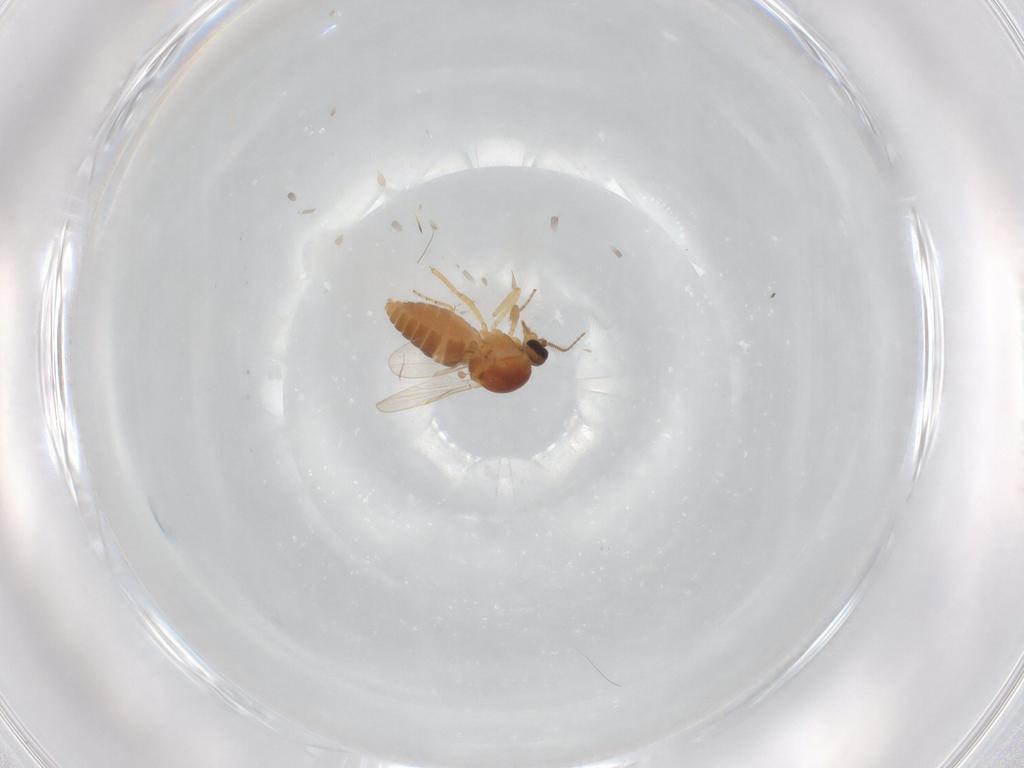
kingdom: Animalia
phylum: Arthropoda
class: Insecta
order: Diptera
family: Ceratopogonidae
